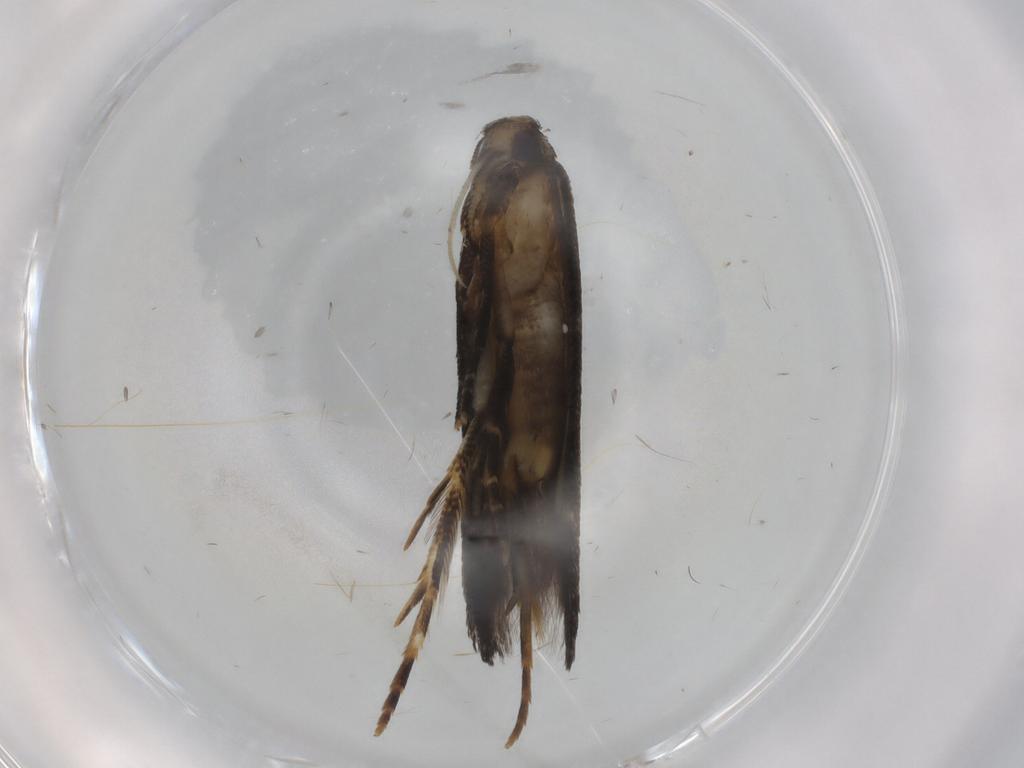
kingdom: Animalia
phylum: Arthropoda
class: Insecta
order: Lepidoptera
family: Cosmopterigidae
